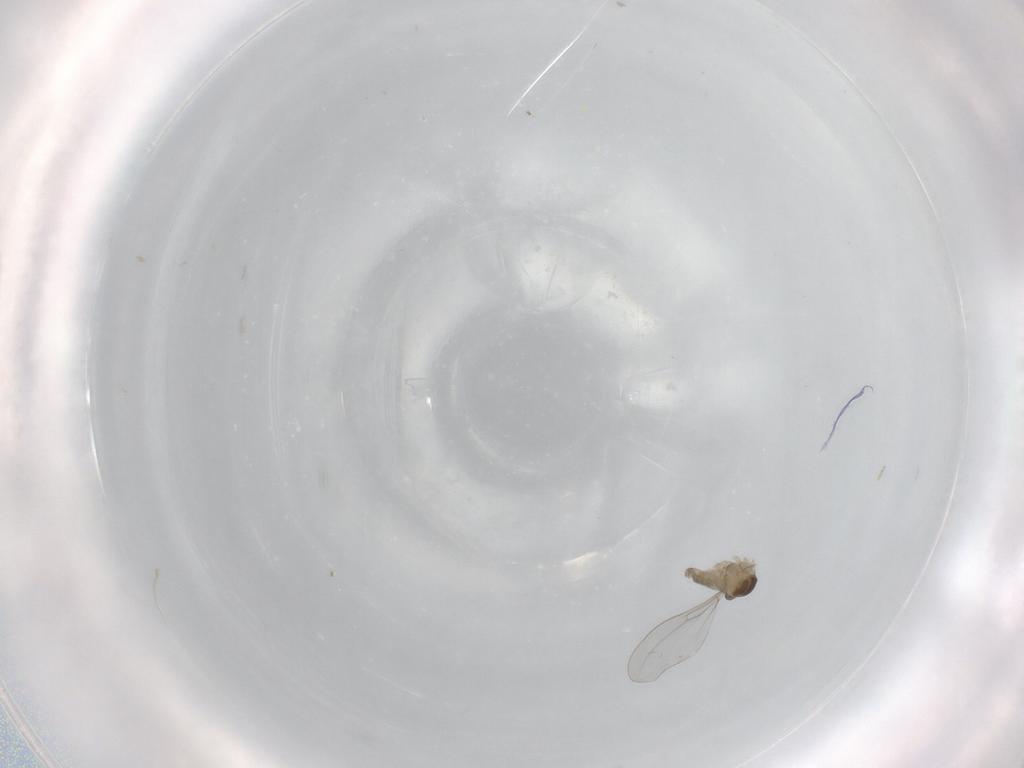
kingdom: Animalia
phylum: Arthropoda
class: Insecta
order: Diptera
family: Cecidomyiidae
